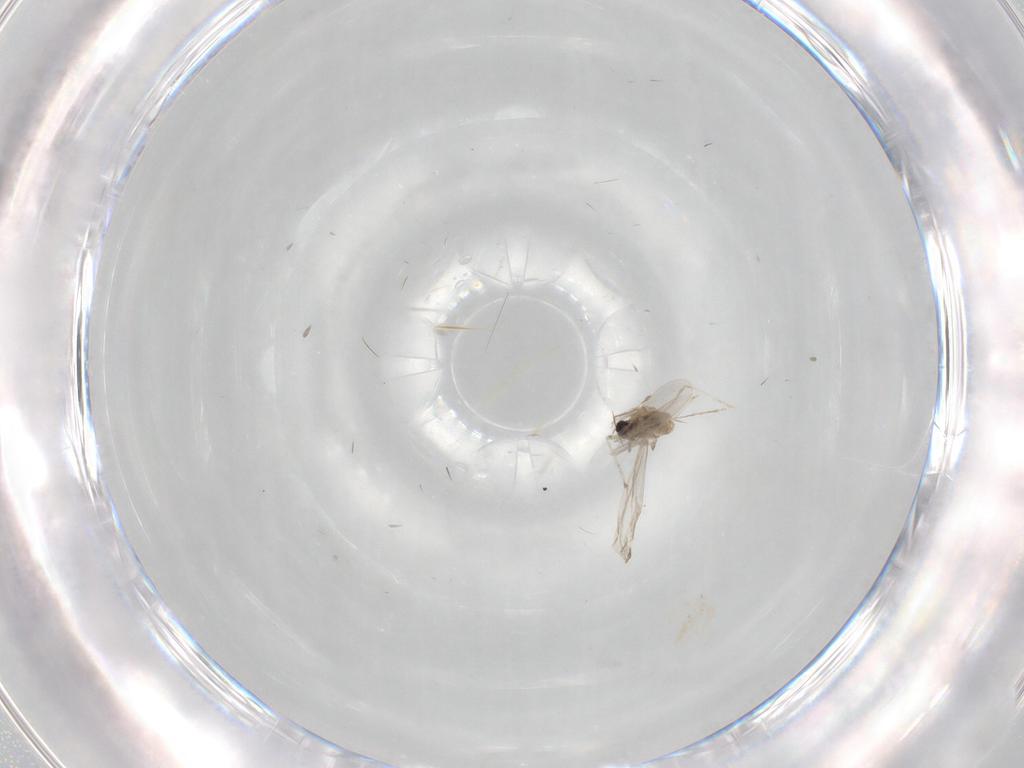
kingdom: Animalia
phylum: Arthropoda
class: Insecta
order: Diptera
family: Cecidomyiidae
